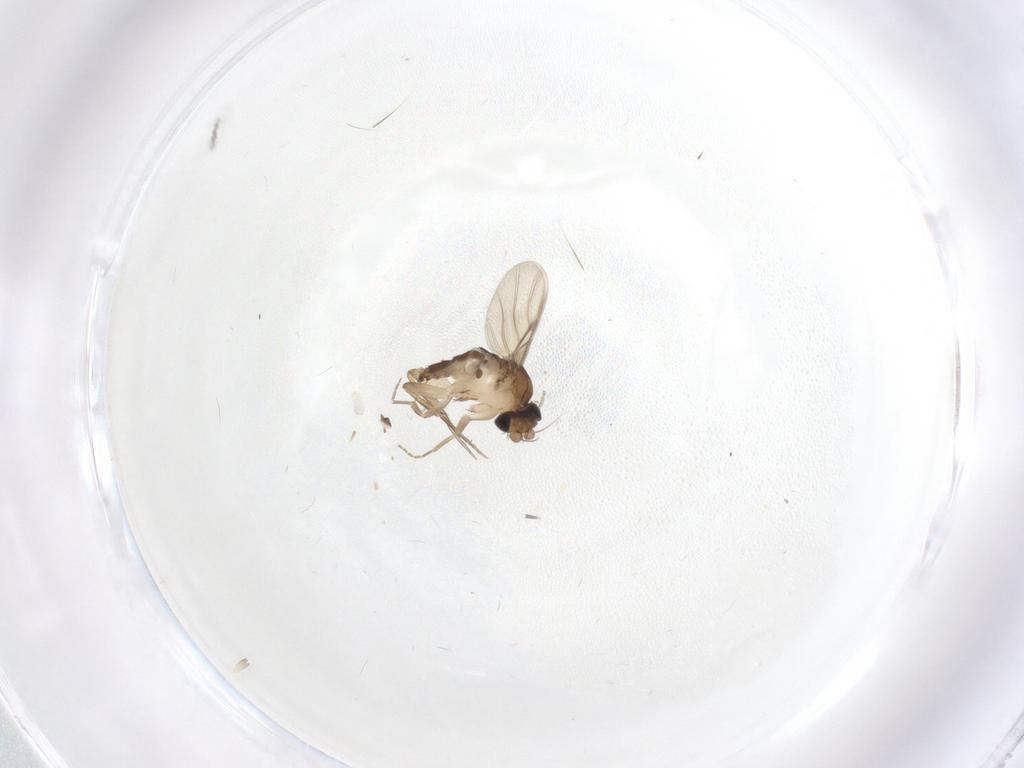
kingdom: Animalia
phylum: Arthropoda
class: Insecta
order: Diptera
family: Phoridae
